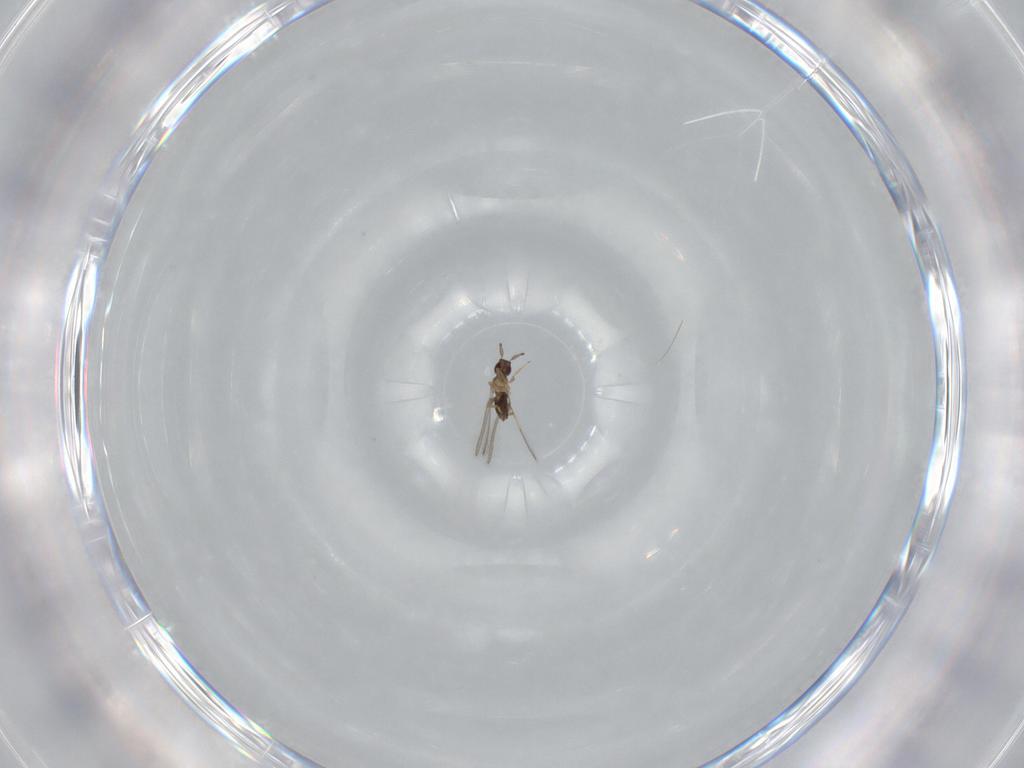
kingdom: Animalia
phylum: Arthropoda
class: Insecta
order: Hymenoptera
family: Mymaridae
